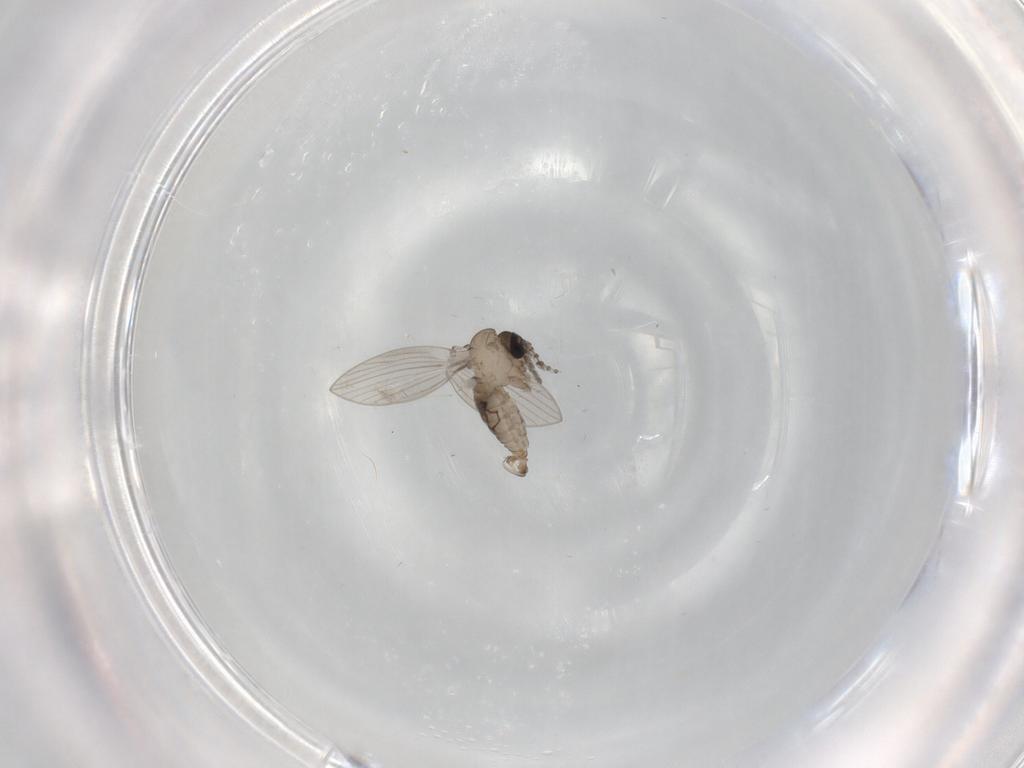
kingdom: Animalia
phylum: Arthropoda
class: Insecta
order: Diptera
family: Psychodidae
